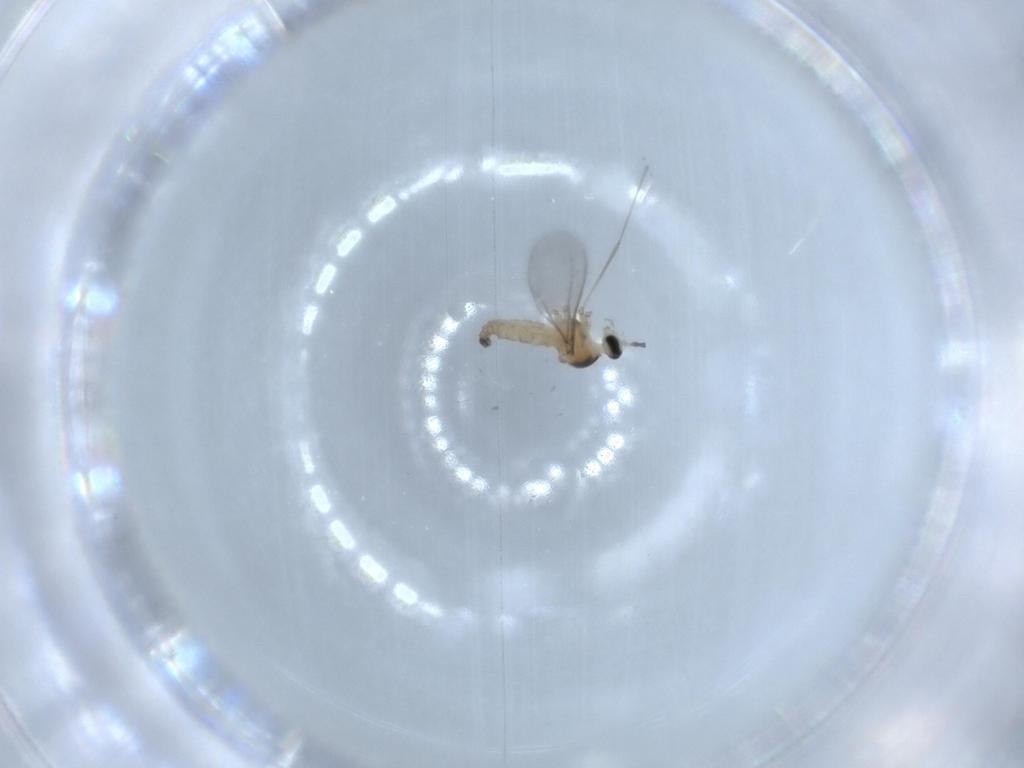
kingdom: Animalia
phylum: Arthropoda
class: Insecta
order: Diptera
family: Cecidomyiidae
